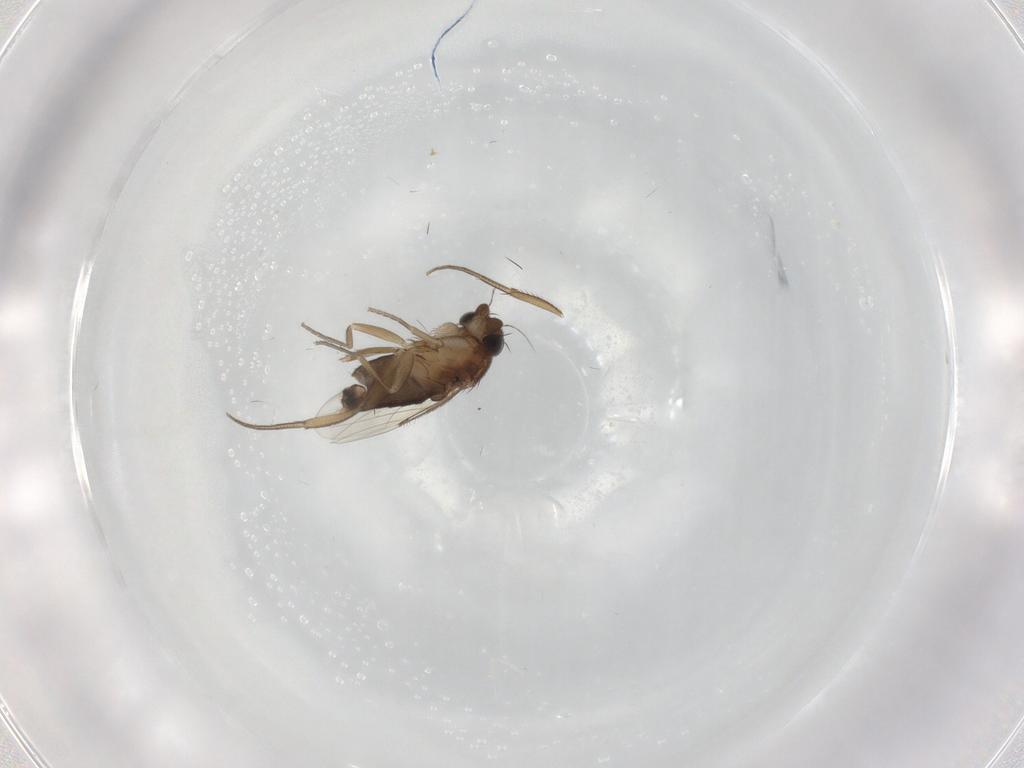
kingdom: Animalia
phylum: Arthropoda
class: Insecta
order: Diptera
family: Phoridae
